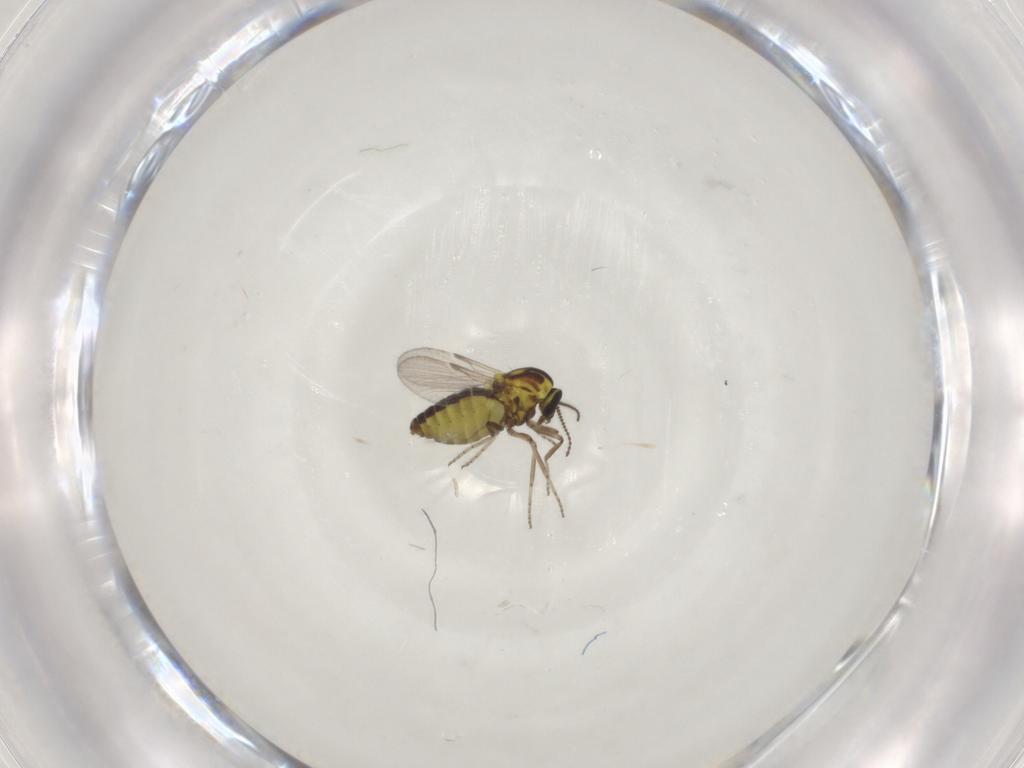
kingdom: Animalia
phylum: Arthropoda
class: Insecta
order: Diptera
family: Ceratopogonidae
